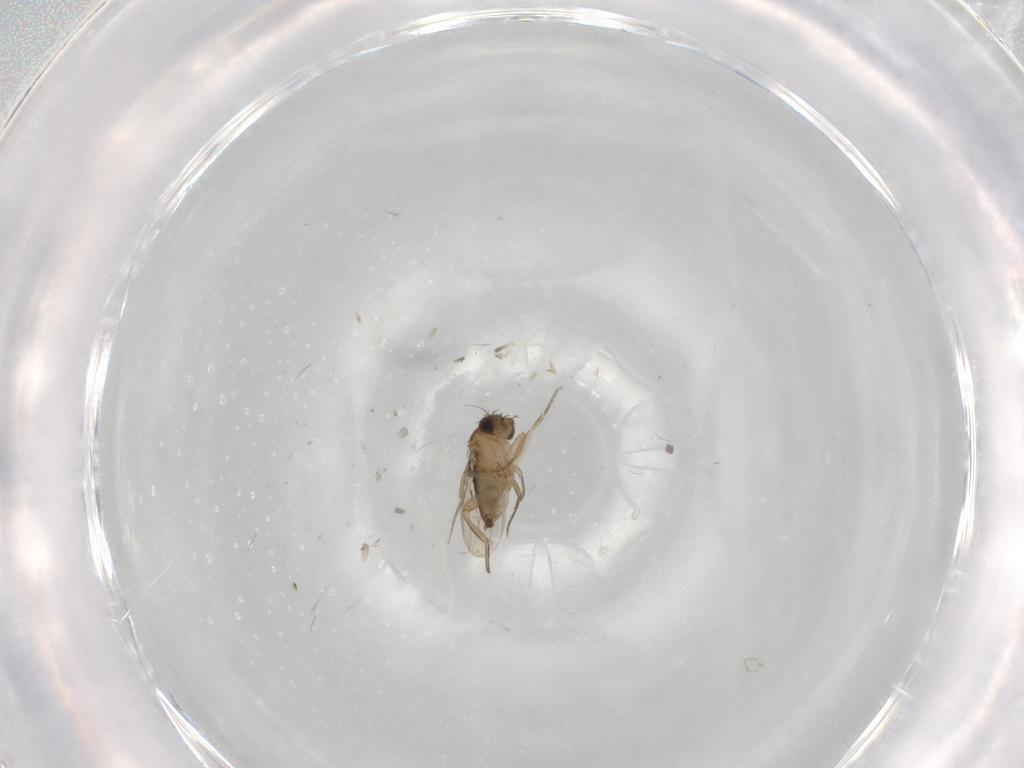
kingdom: Animalia
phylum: Arthropoda
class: Insecta
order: Diptera
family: Phoridae
